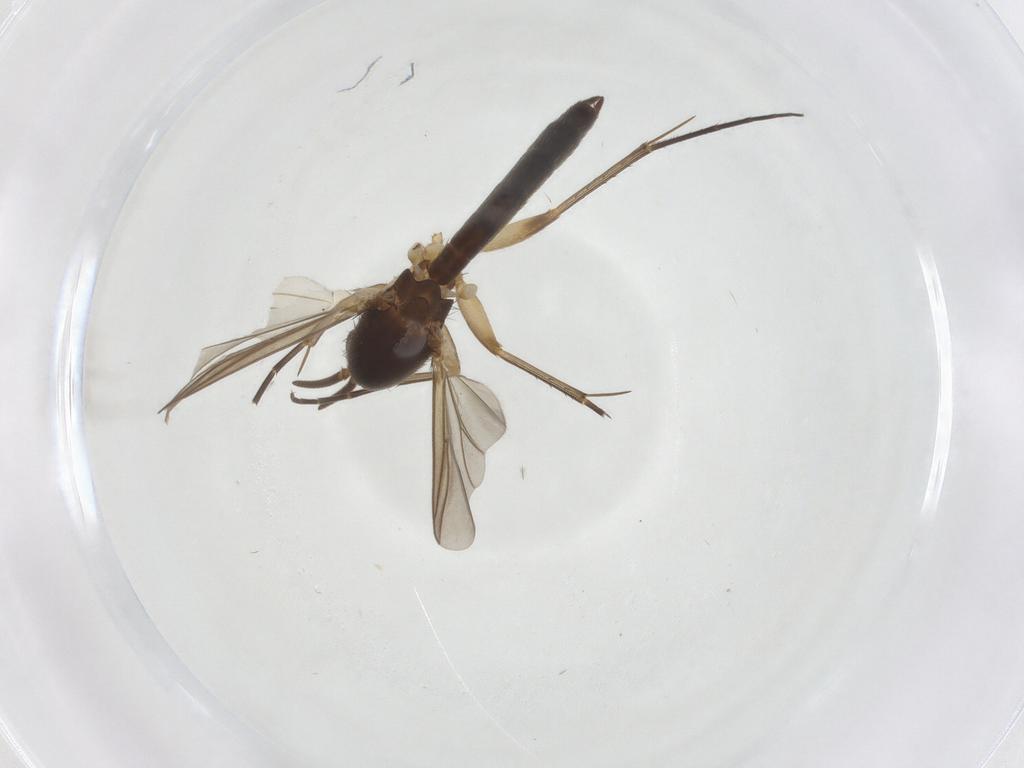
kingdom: Animalia
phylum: Arthropoda
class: Insecta
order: Diptera
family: Mycetophilidae
